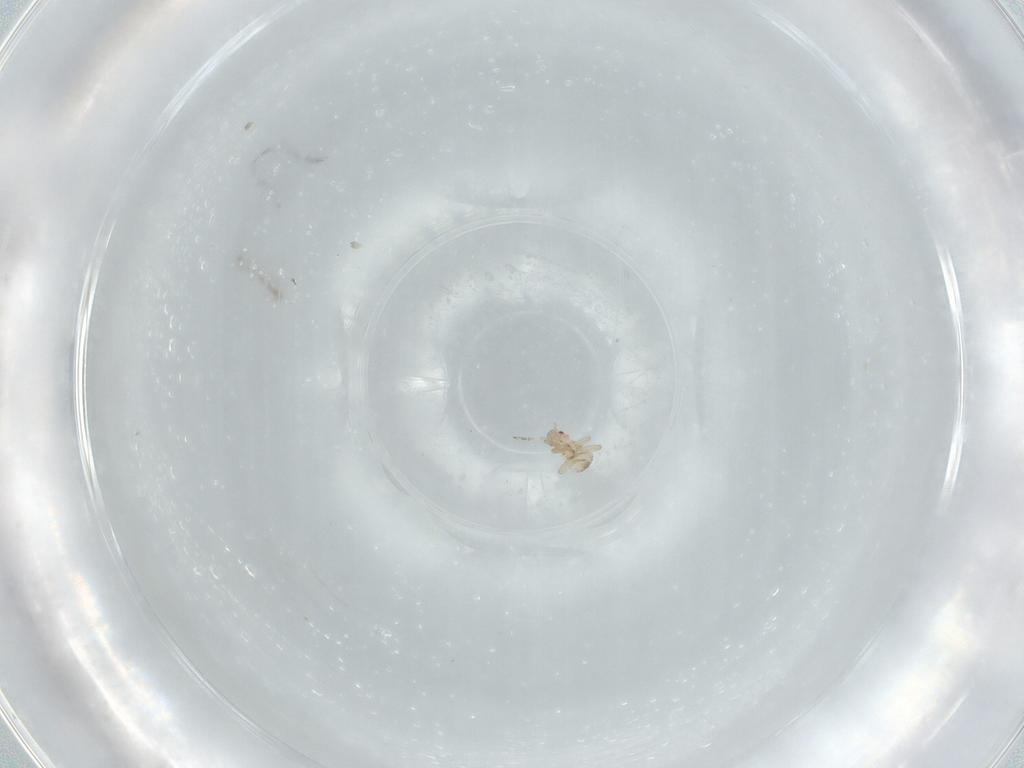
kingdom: Animalia
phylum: Arthropoda
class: Insecta
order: Hemiptera
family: Aphididae
